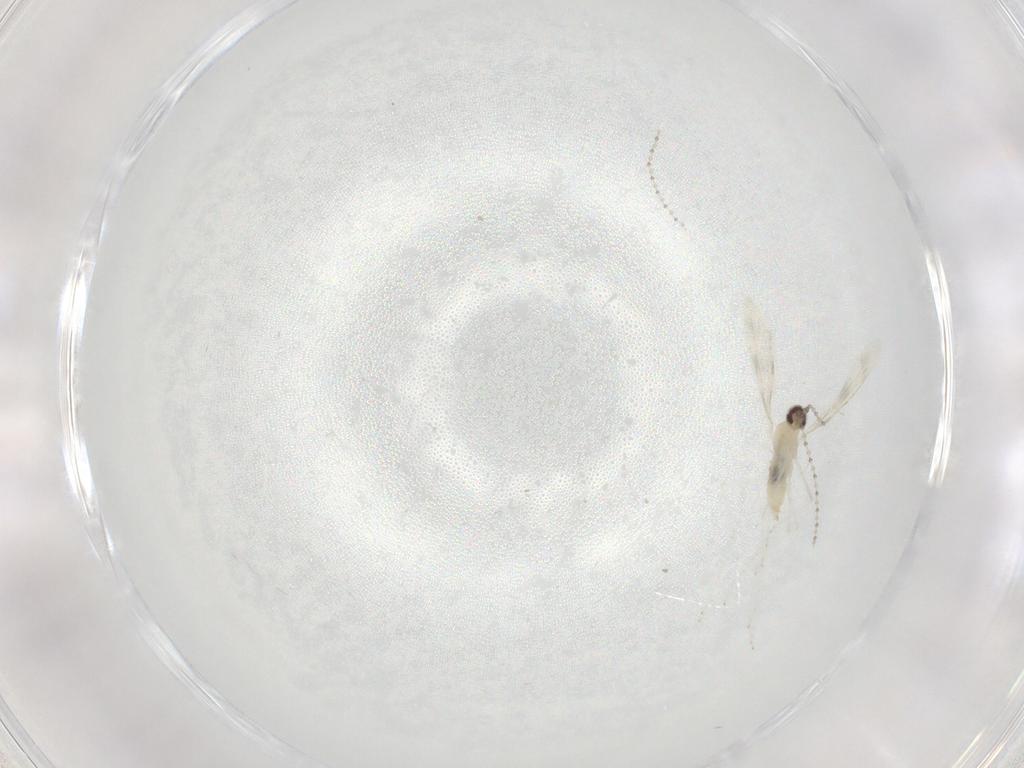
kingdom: Animalia
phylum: Arthropoda
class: Insecta
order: Diptera
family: Cecidomyiidae
